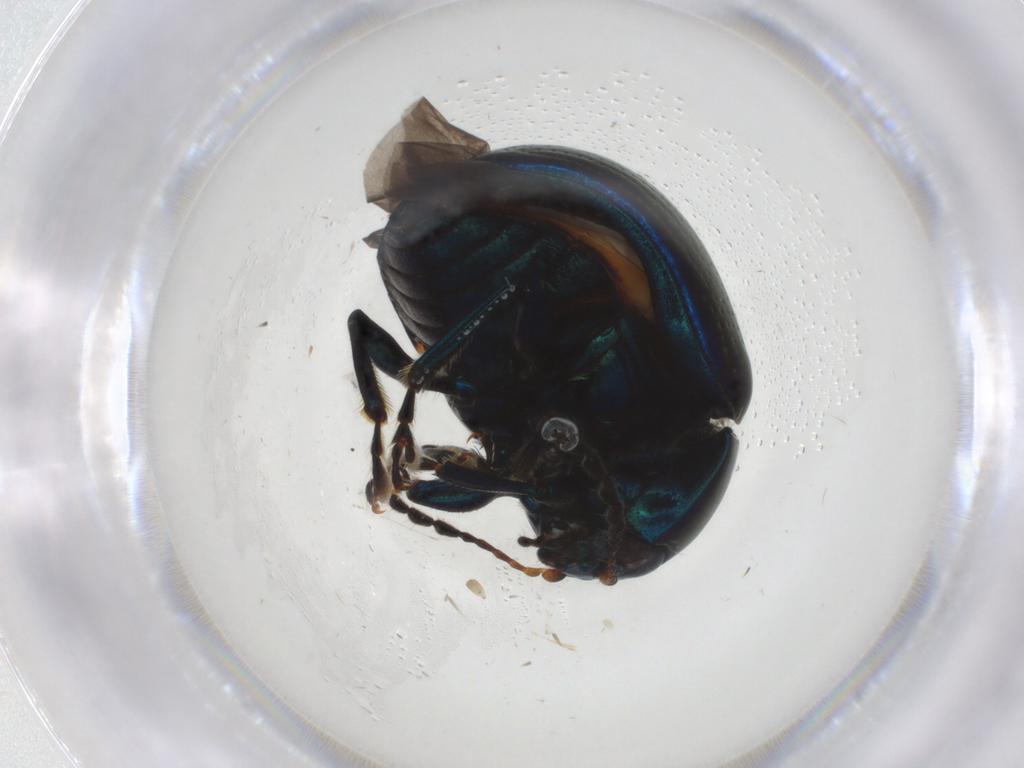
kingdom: Animalia
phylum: Arthropoda
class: Insecta
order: Coleoptera
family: Chrysomelidae
